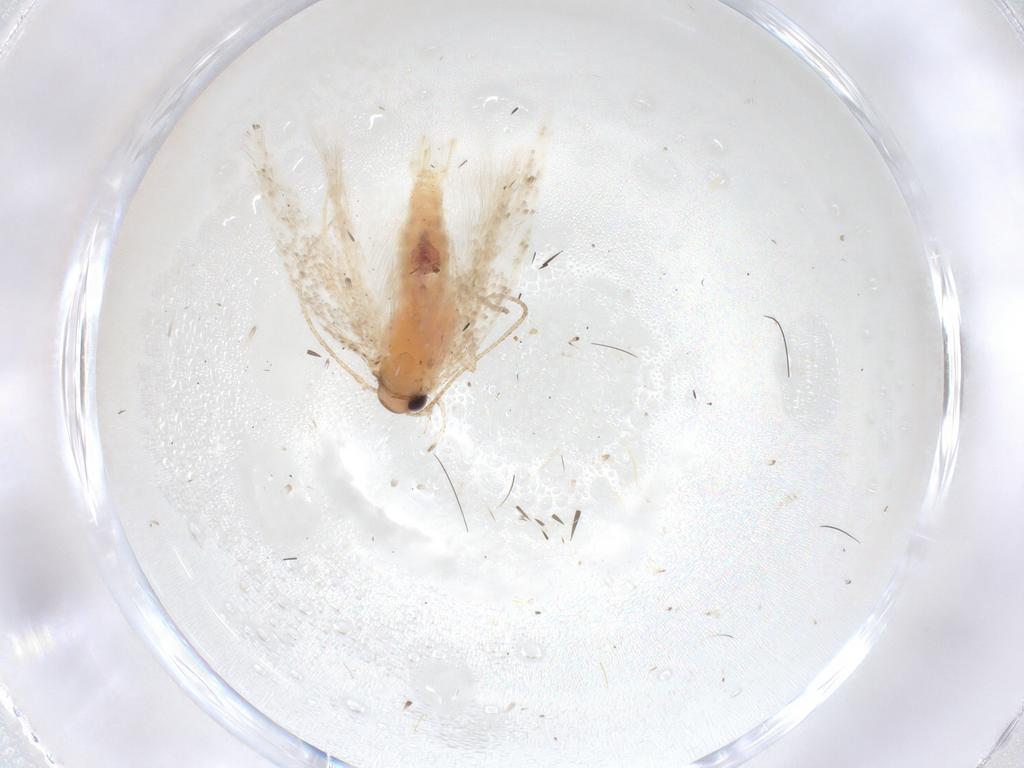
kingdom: Animalia
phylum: Arthropoda
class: Insecta
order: Lepidoptera
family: Cosmopterigidae
